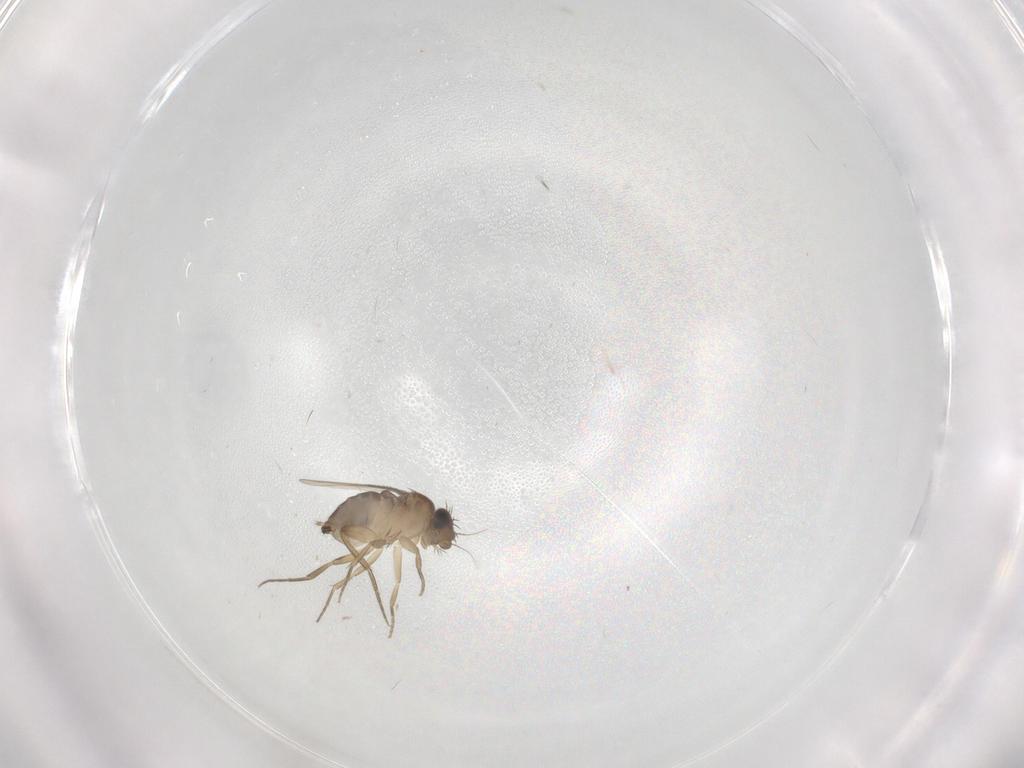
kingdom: Animalia
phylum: Arthropoda
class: Insecta
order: Diptera
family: Phoridae
